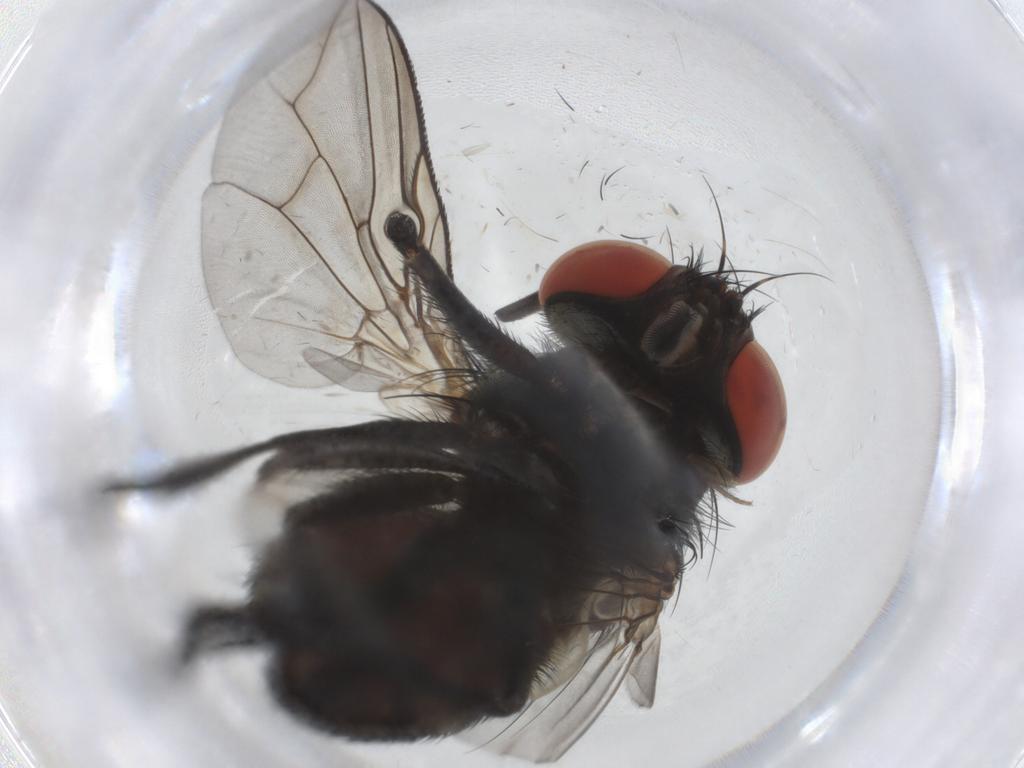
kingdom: Animalia
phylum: Arthropoda
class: Insecta
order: Diptera
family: Phoridae
